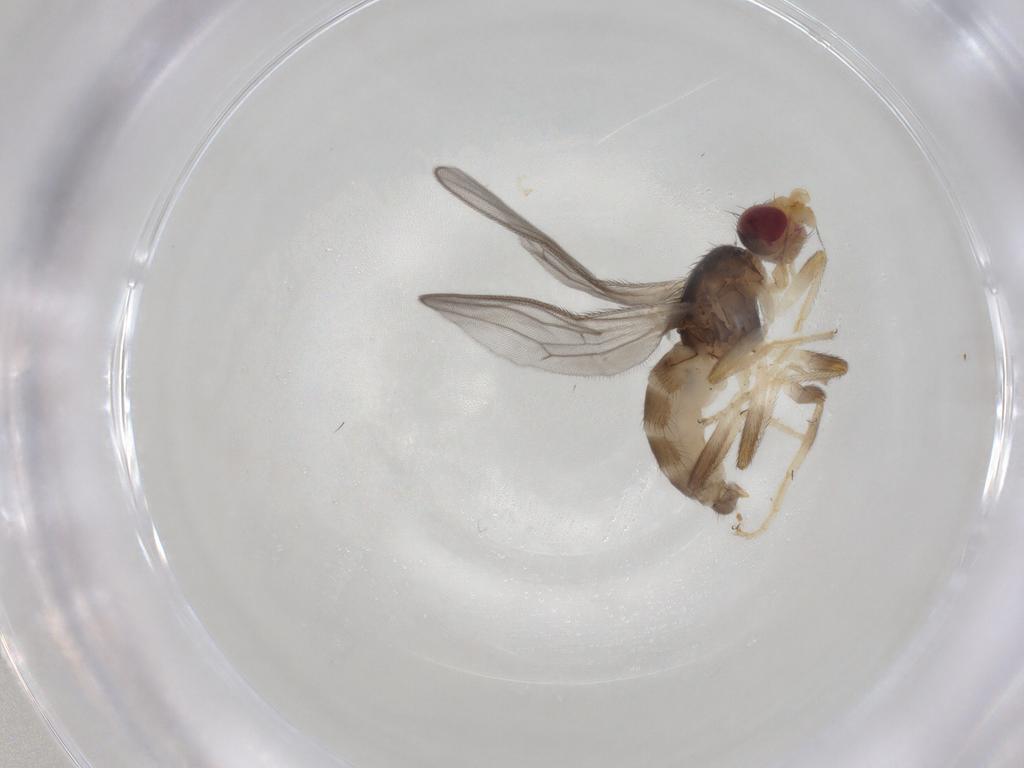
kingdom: Animalia
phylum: Arthropoda
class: Insecta
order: Diptera
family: Chloropidae
